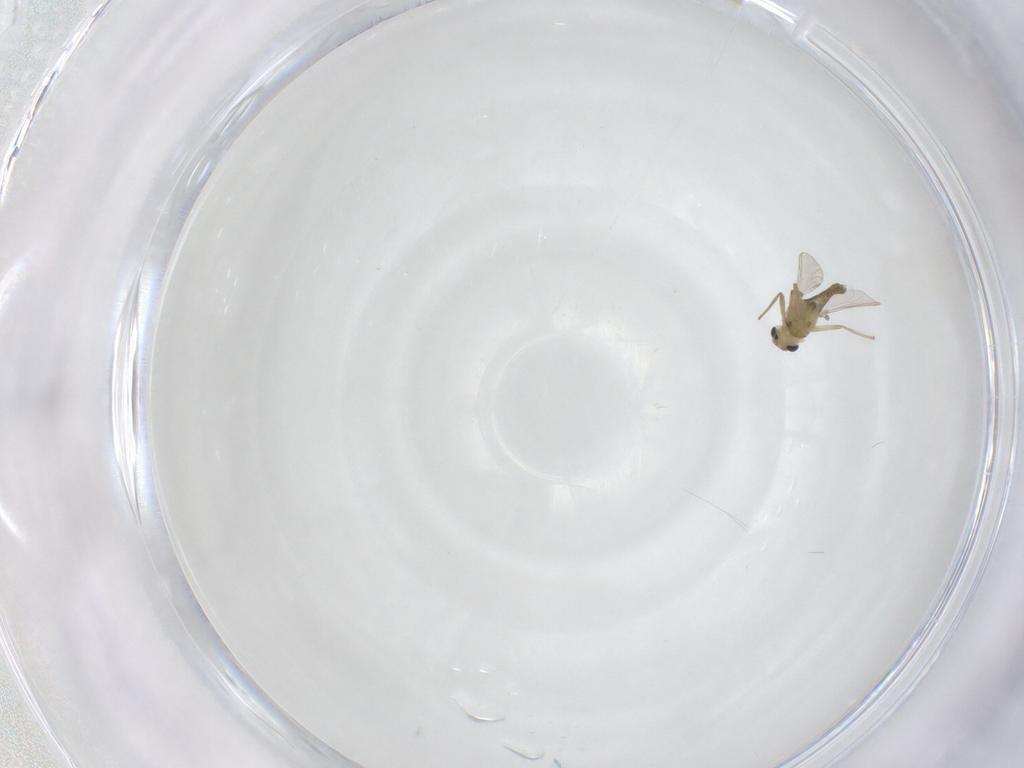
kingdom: Animalia
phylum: Arthropoda
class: Insecta
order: Diptera
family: Chironomidae
